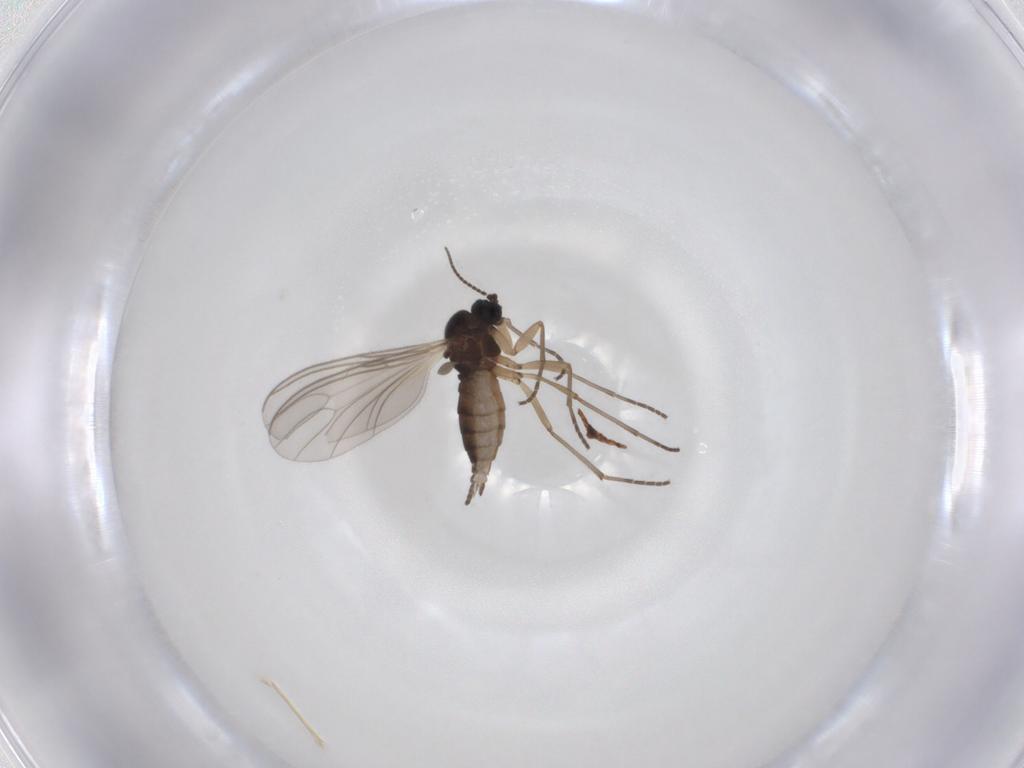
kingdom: Animalia
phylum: Arthropoda
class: Insecta
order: Diptera
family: Sciaridae
